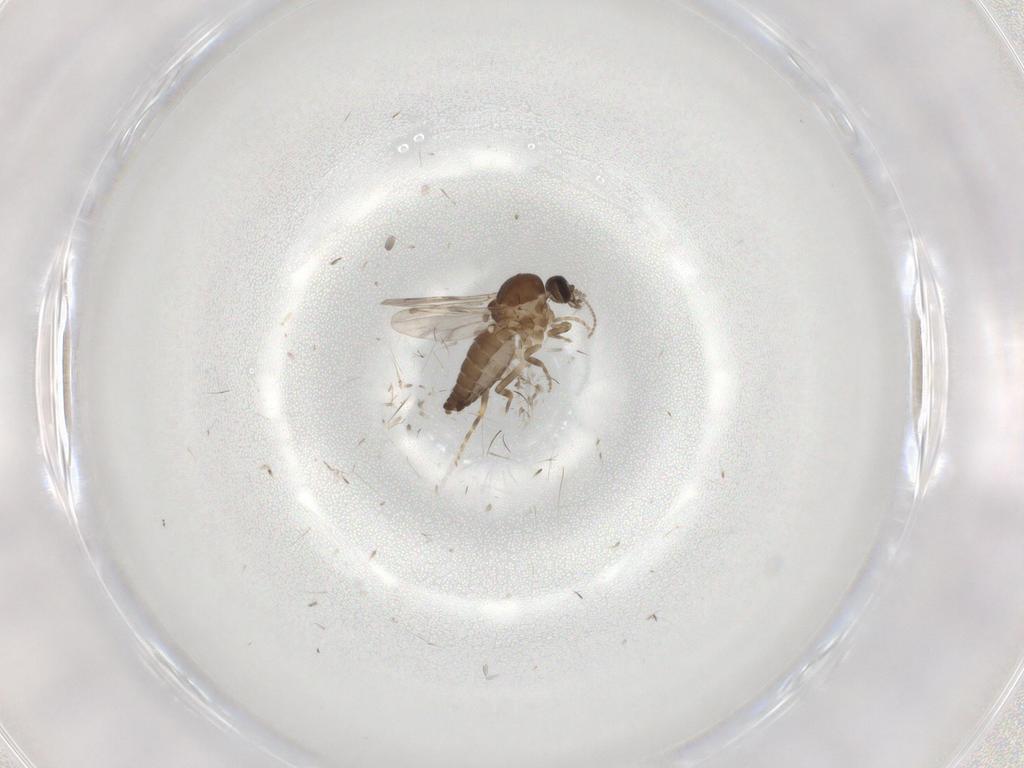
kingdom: Animalia
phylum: Arthropoda
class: Insecta
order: Diptera
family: Ceratopogonidae
